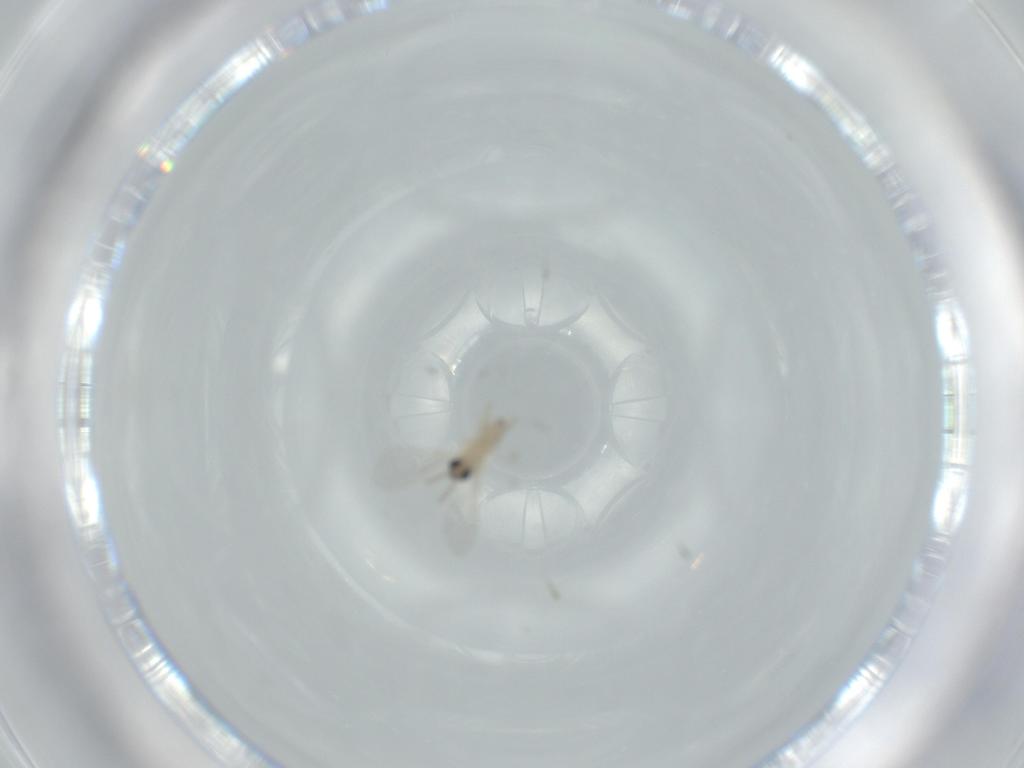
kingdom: Animalia
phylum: Arthropoda
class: Insecta
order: Diptera
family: Cecidomyiidae
